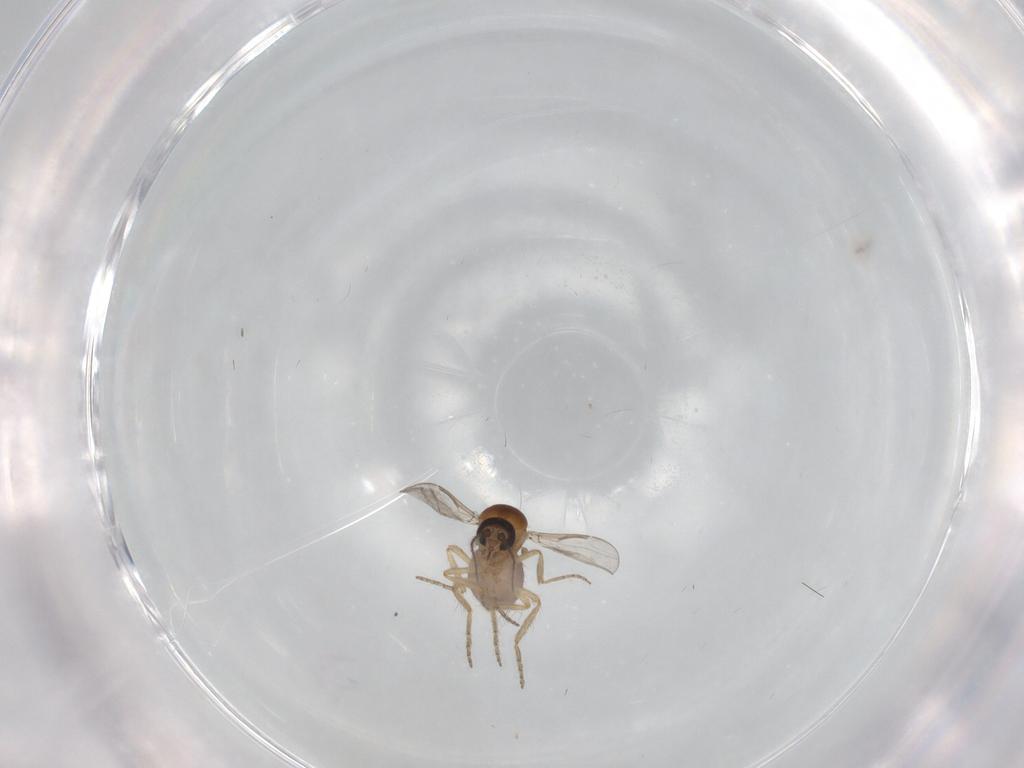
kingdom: Animalia
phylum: Arthropoda
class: Insecta
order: Diptera
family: Ceratopogonidae
